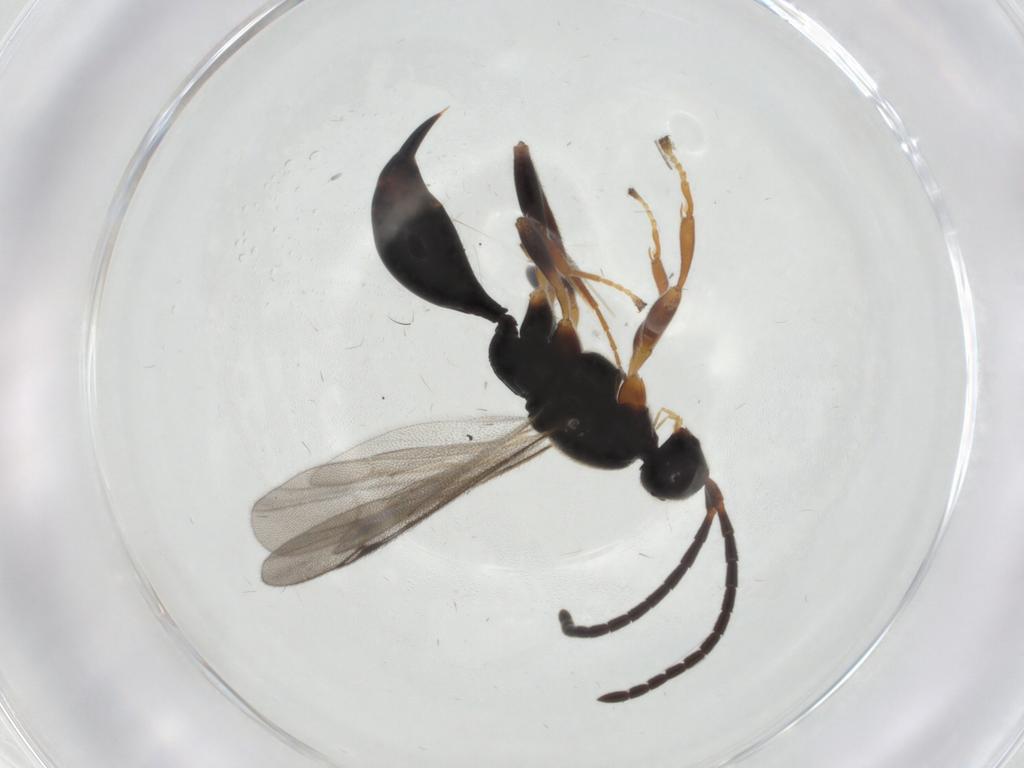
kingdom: Animalia
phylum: Arthropoda
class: Insecta
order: Hymenoptera
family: Proctotrupidae
